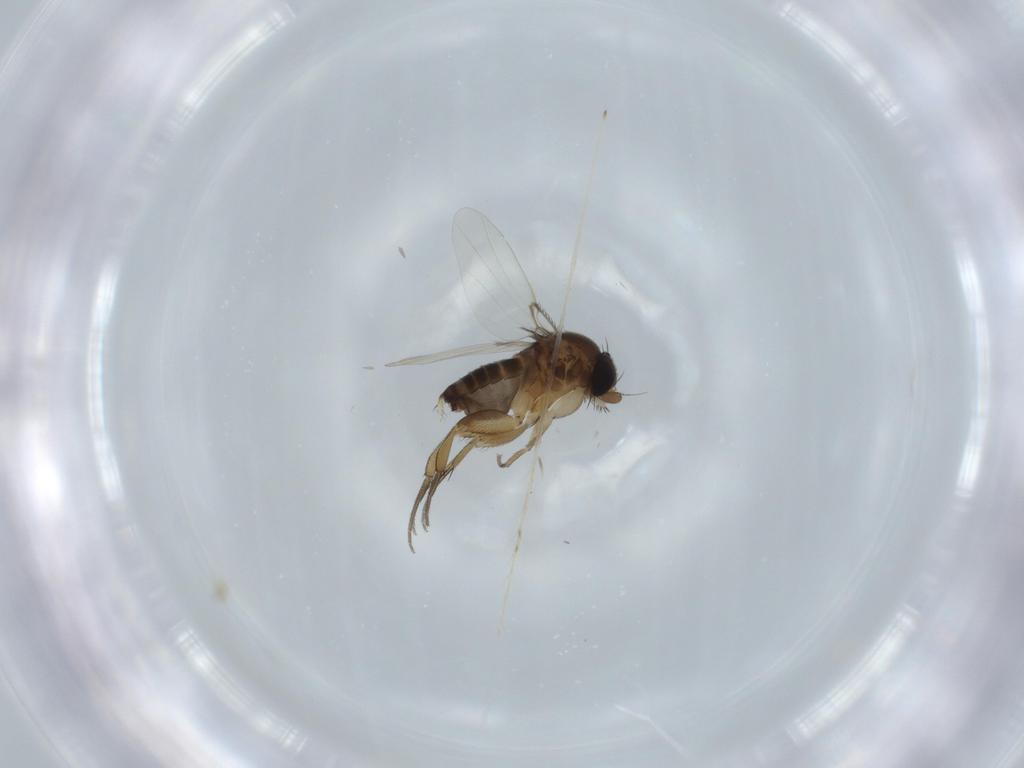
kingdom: Animalia
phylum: Arthropoda
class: Insecta
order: Diptera
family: Phoridae
